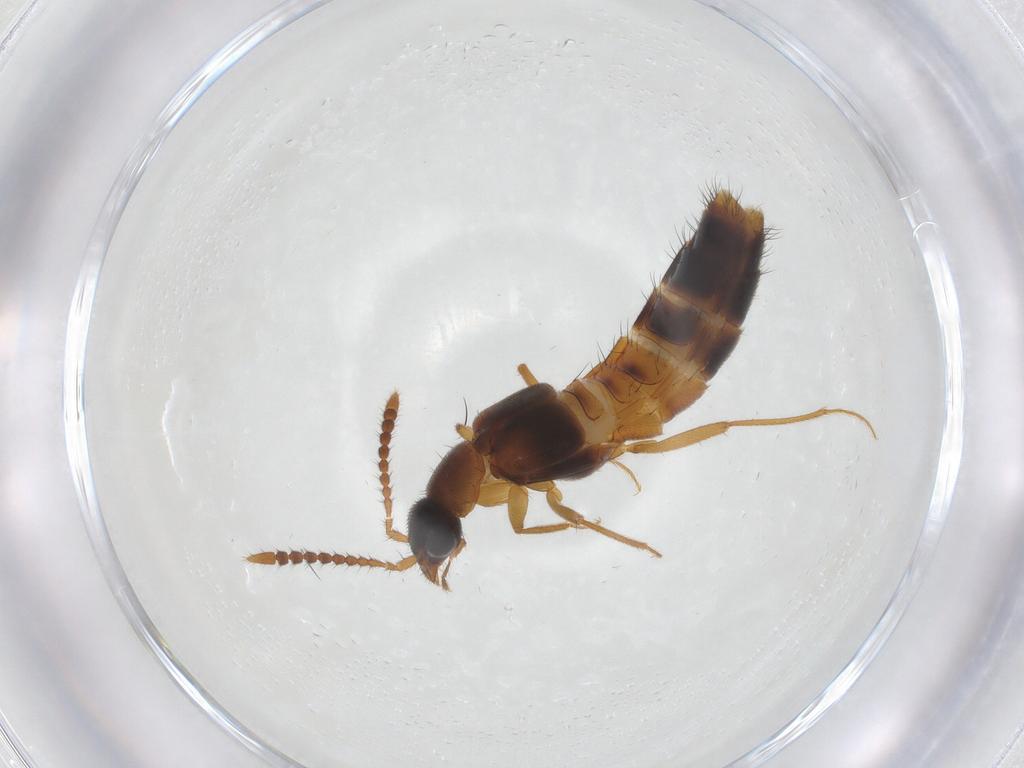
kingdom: Animalia
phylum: Arthropoda
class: Insecta
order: Coleoptera
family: Staphylinidae
